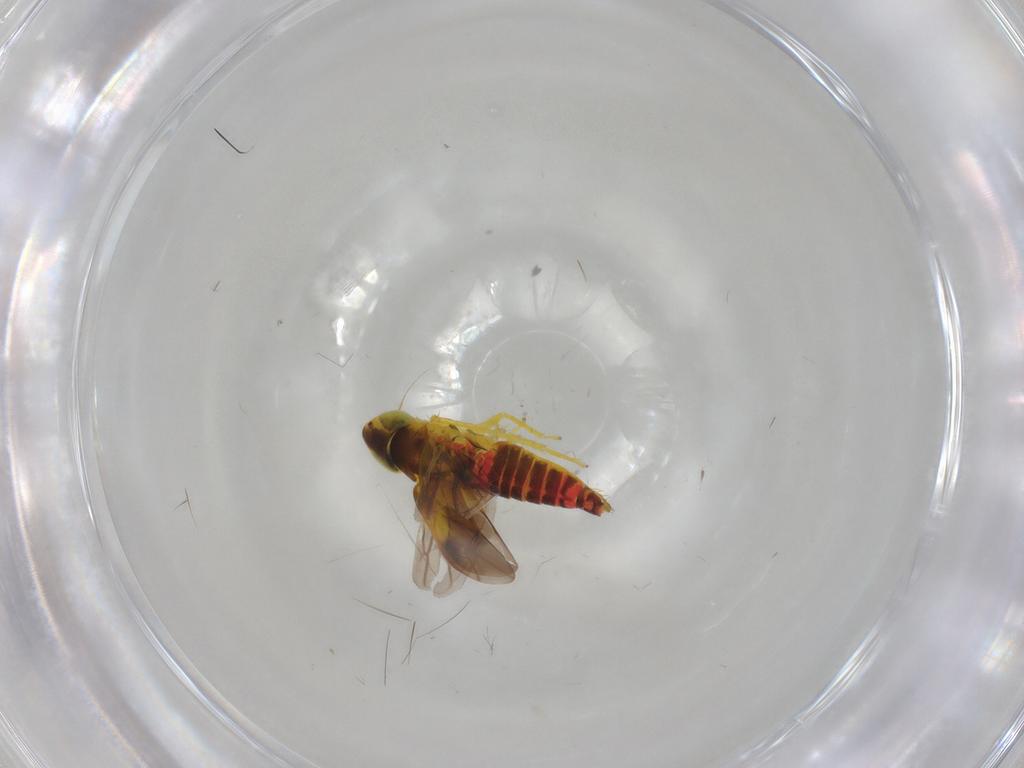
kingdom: Animalia
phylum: Arthropoda
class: Insecta
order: Hemiptera
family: Cicadellidae
